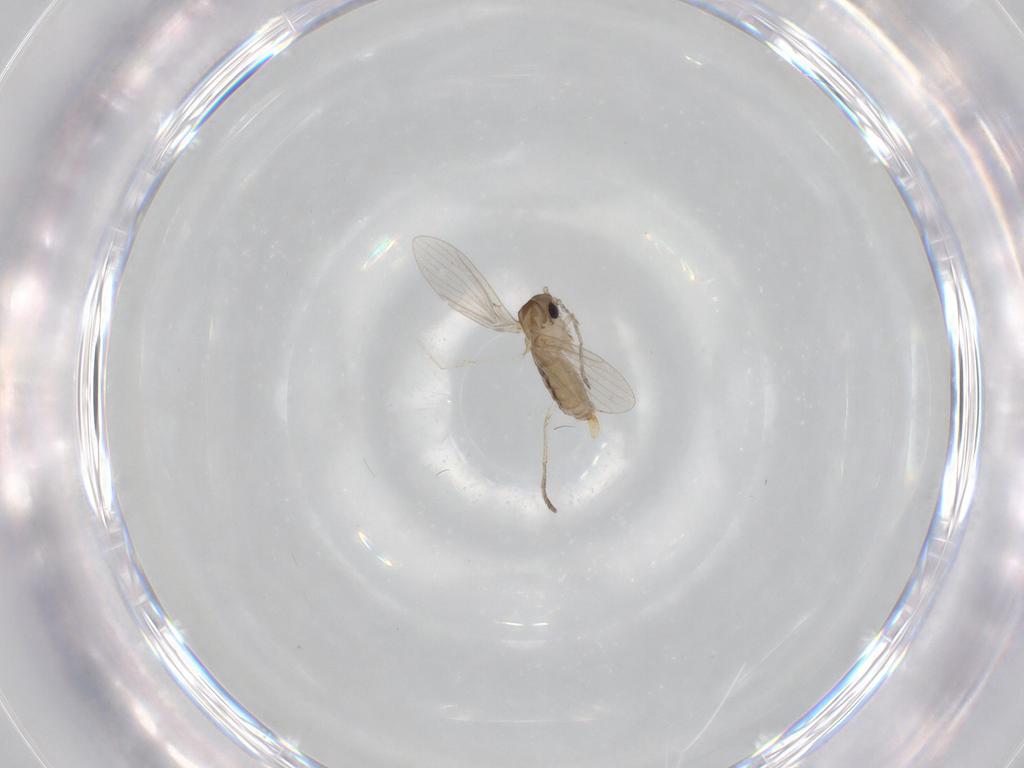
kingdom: Animalia
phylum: Arthropoda
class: Insecta
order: Diptera
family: Psychodidae
